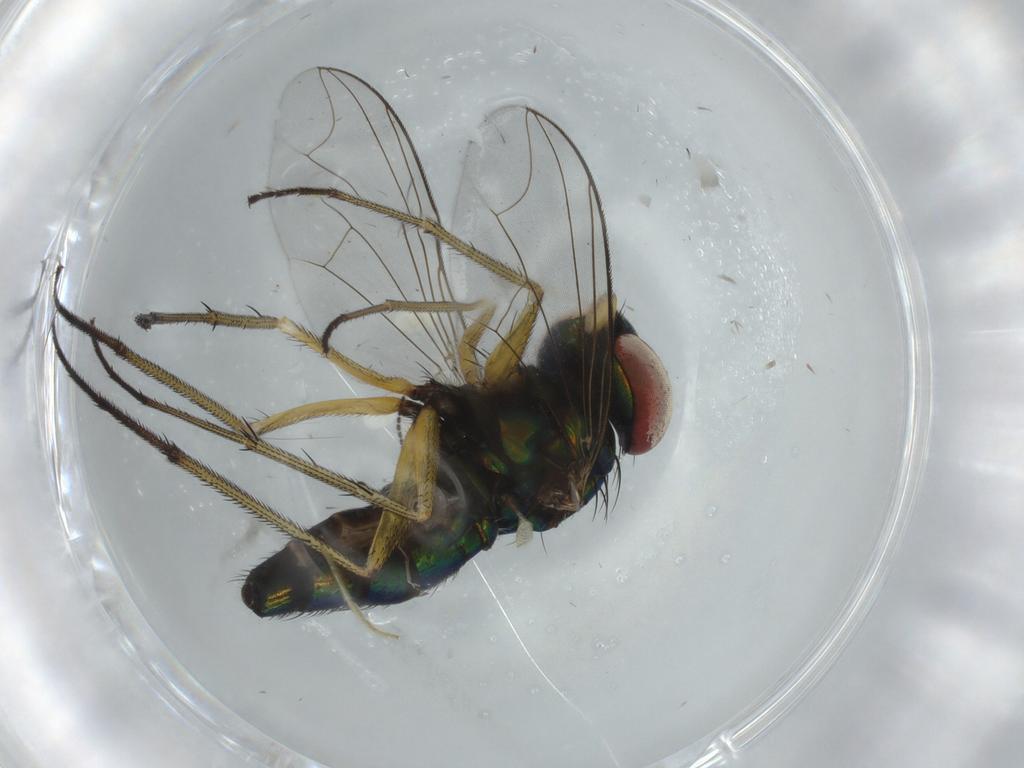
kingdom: Animalia
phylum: Arthropoda
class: Insecta
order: Diptera
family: Dolichopodidae
